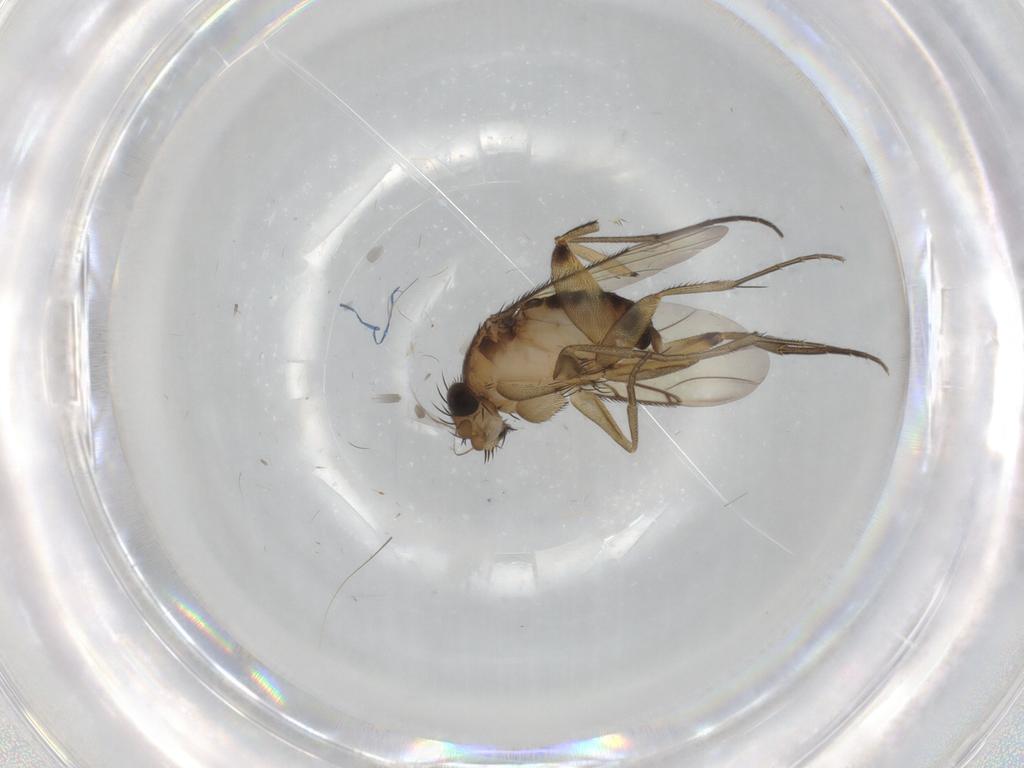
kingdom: Animalia
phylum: Arthropoda
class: Insecta
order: Diptera
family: Phoridae
